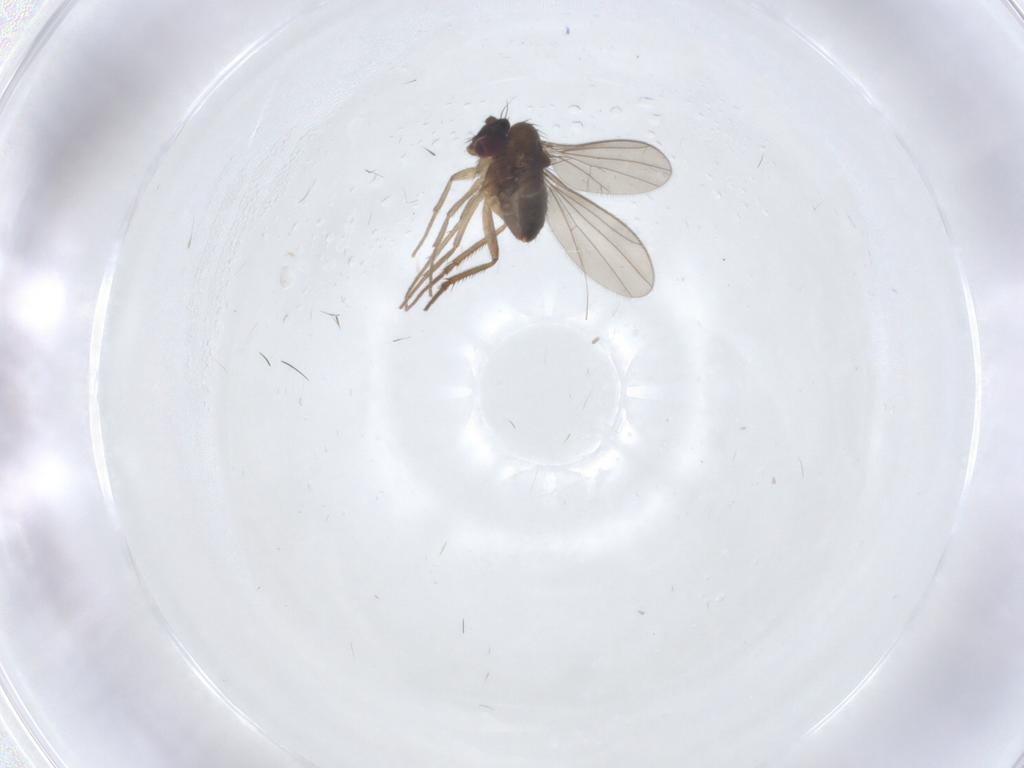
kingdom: Animalia
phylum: Arthropoda
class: Insecta
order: Diptera
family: Dolichopodidae
